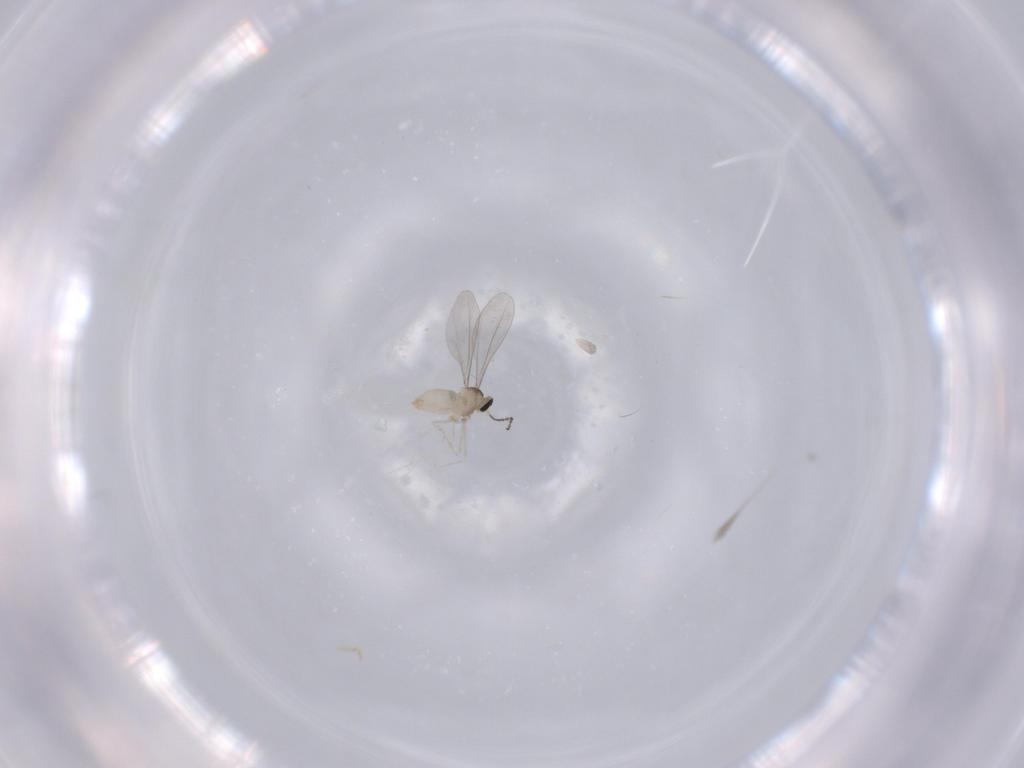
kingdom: Animalia
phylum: Arthropoda
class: Insecta
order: Diptera
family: Cecidomyiidae
